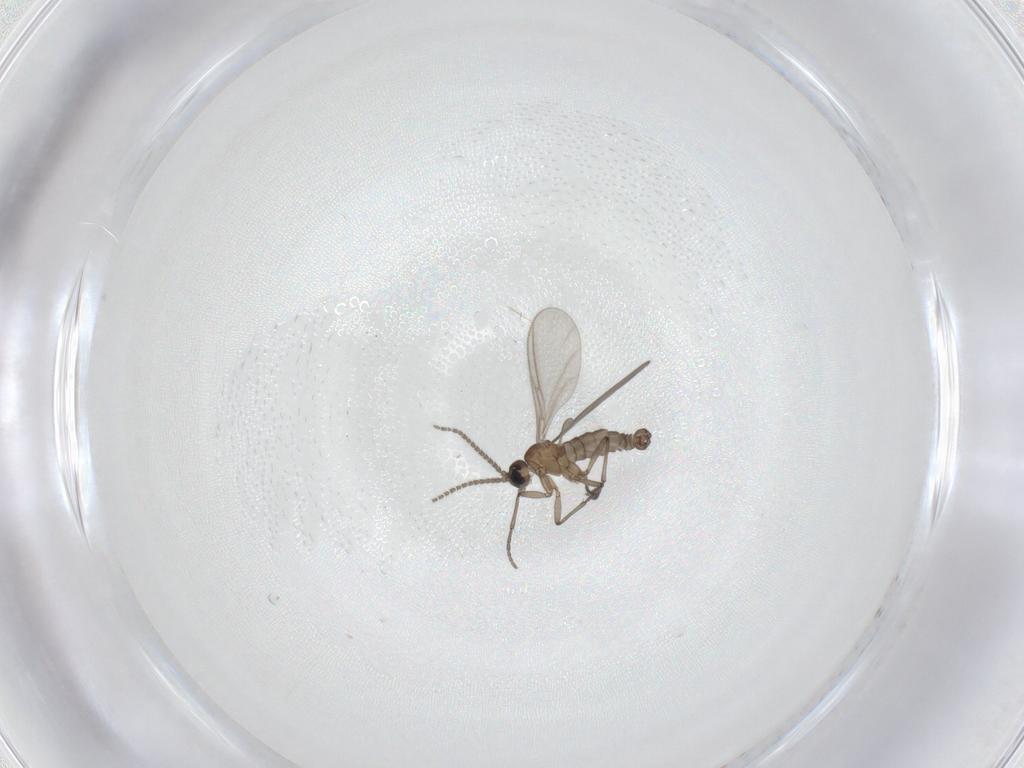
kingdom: Animalia
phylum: Arthropoda
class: Insecta
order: Diptera
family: Sciaridae
